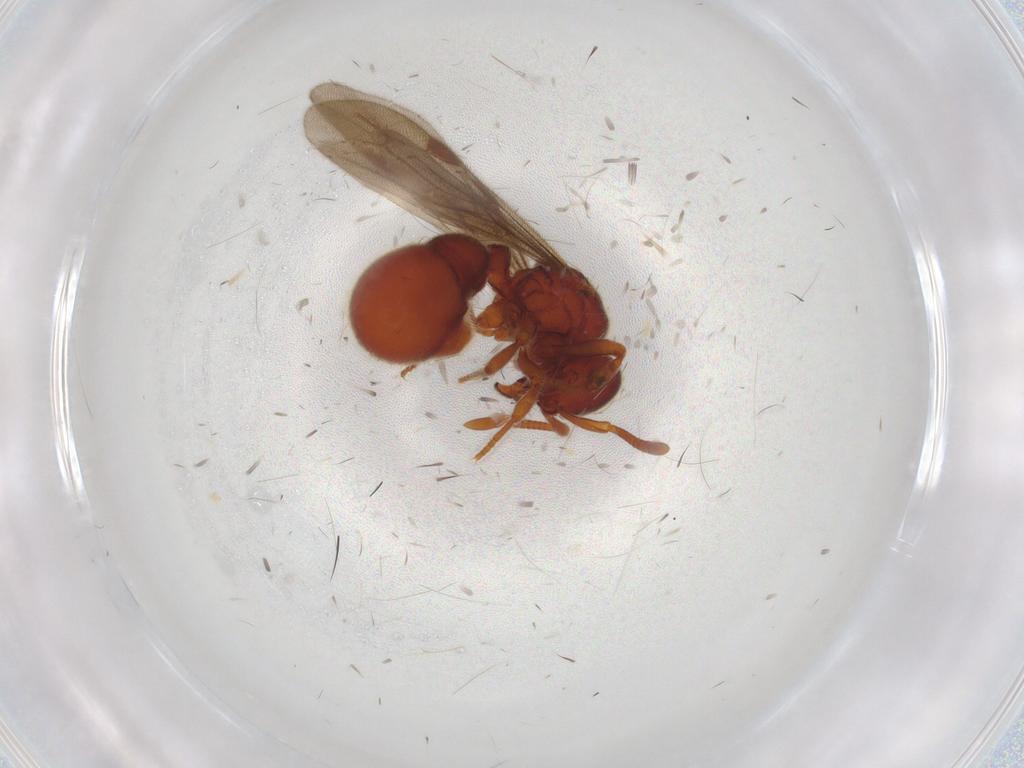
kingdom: Animalia
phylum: Arthropoda
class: Insecta
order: Hymenoptera
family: Formicidae
